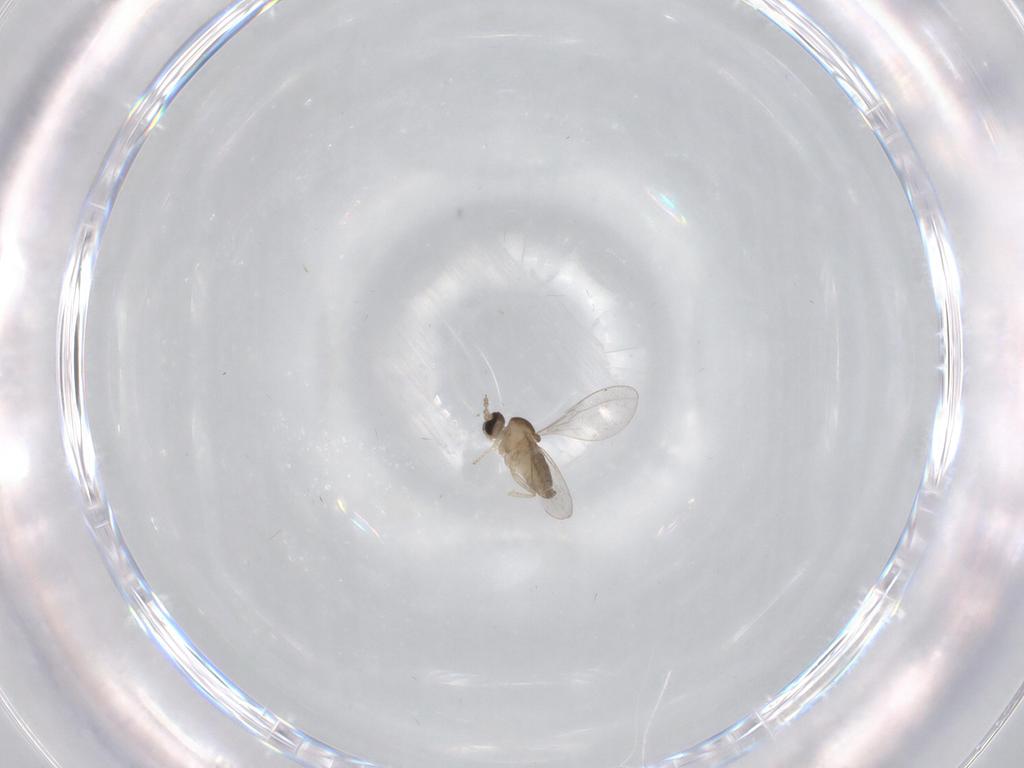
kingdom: Animalia
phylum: Arthropoda
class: Insecta
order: Diptera
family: Cecidomyiidae
